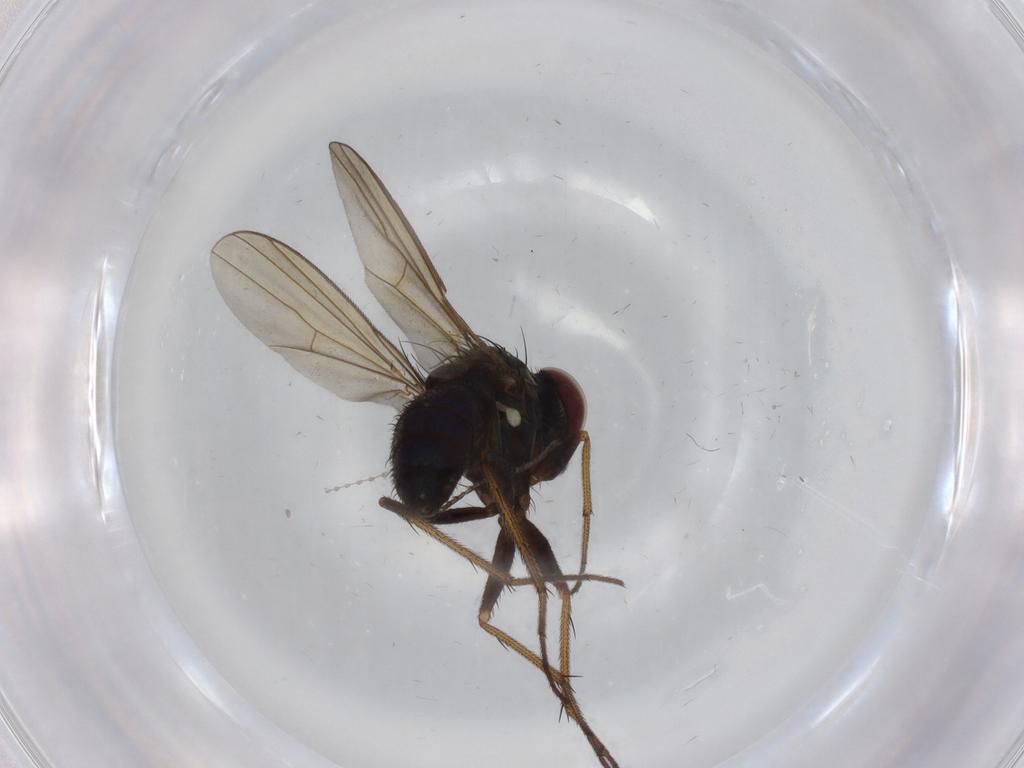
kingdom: Animalia
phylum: Arthropoda
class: Insecta
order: Diptera
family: Dolichopodidae
